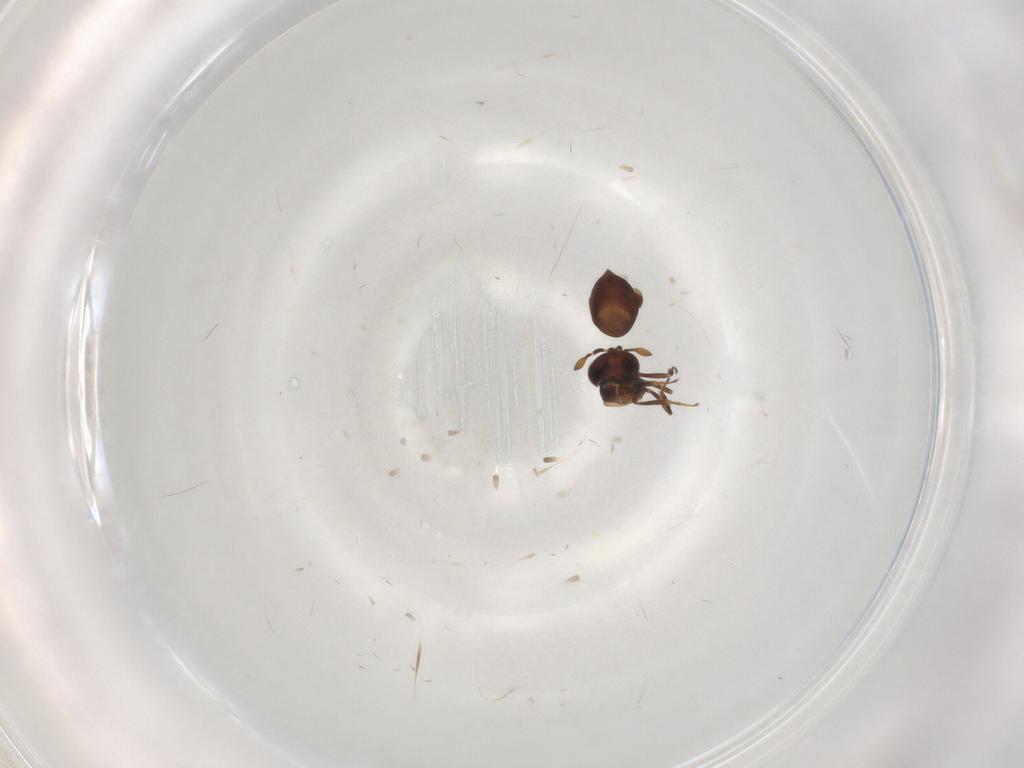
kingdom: Animalia
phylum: Arthropoda
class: Insecta
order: Hymenoptera
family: Scelionidae
